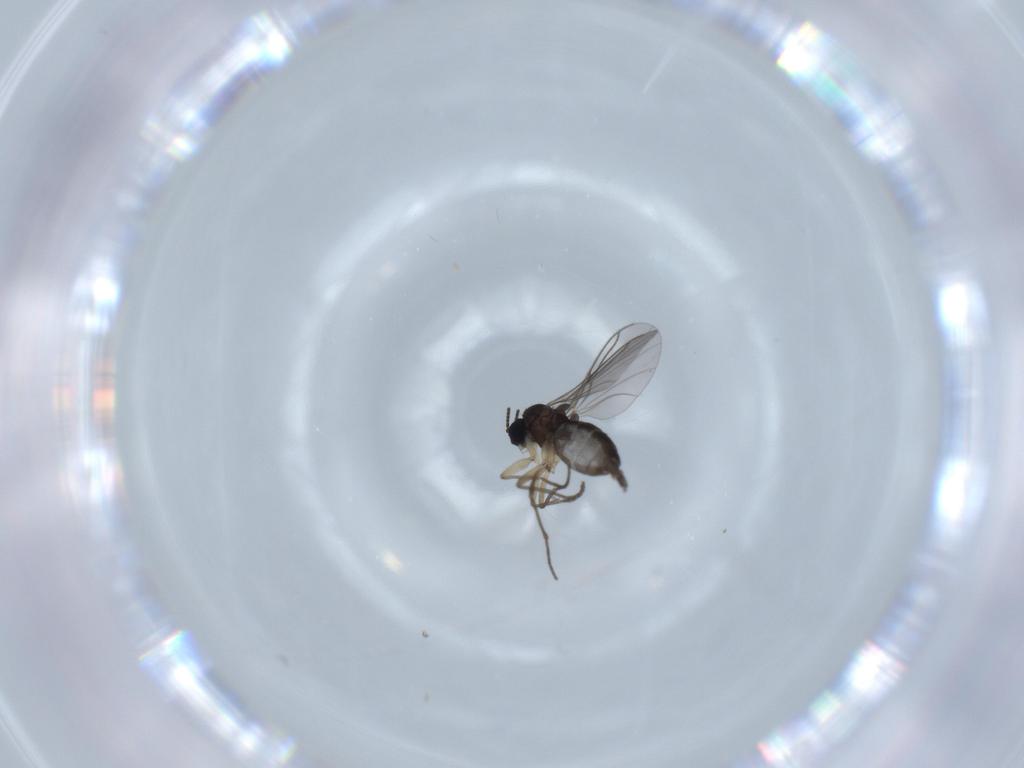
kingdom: Animalia
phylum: Arthropoda
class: Insecta
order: Diptera
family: Sciaridae
